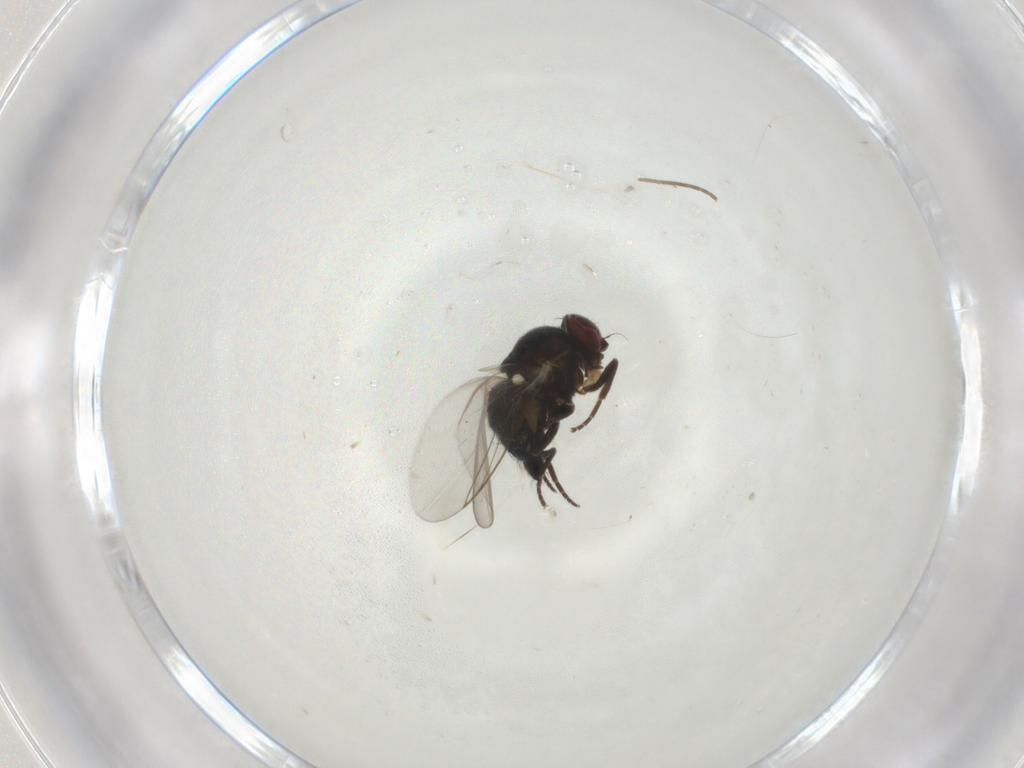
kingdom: Animalia
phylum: Arthropoda
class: Insecta
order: Diptera
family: Agromyzidae
